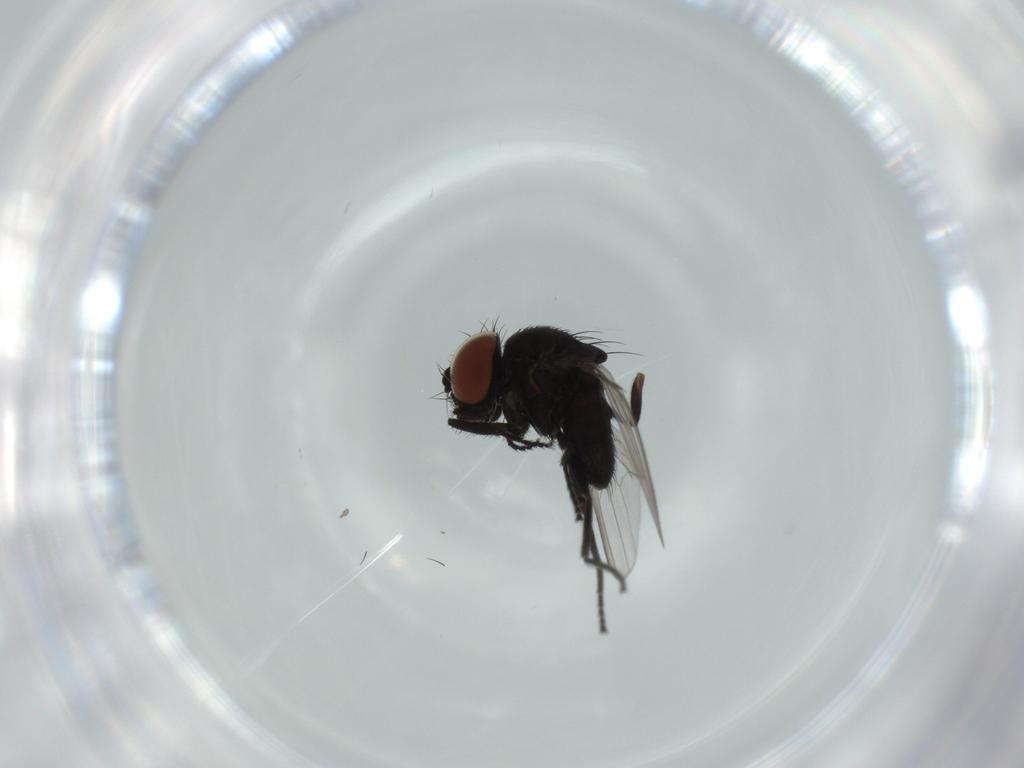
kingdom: Animalia
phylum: Arthropoda
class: Insecta
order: Diptera
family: Milichiidae
